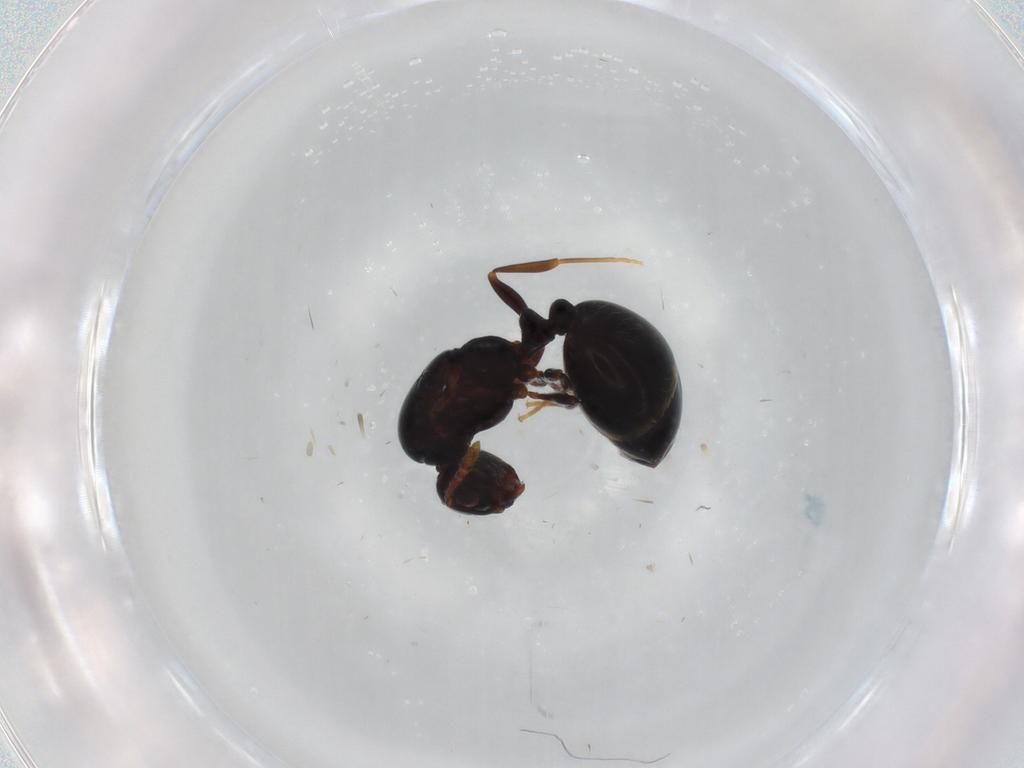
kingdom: Animalia
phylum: Arthropoda
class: Insecta
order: Hymenoptera
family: Formicidae
